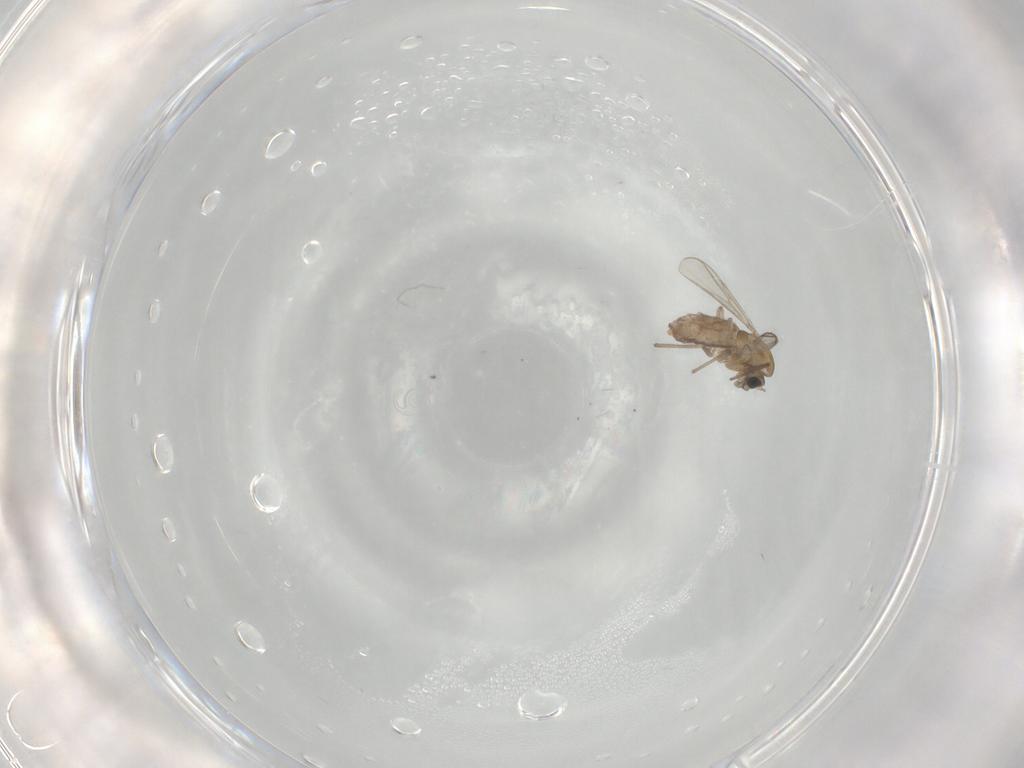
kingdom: Animalia
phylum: Arthropoda
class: Insecta
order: Diptera
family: Chironomidae
